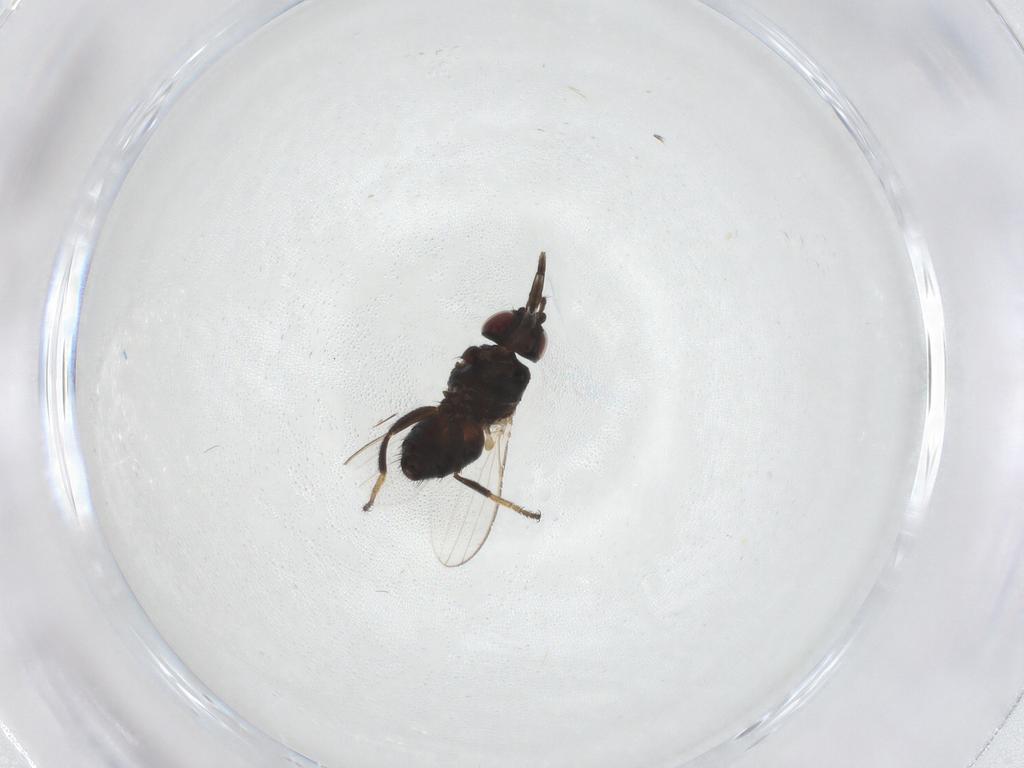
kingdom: Animalia
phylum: Arthropoda
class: Insecta
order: Diptera
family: Milichiidae
